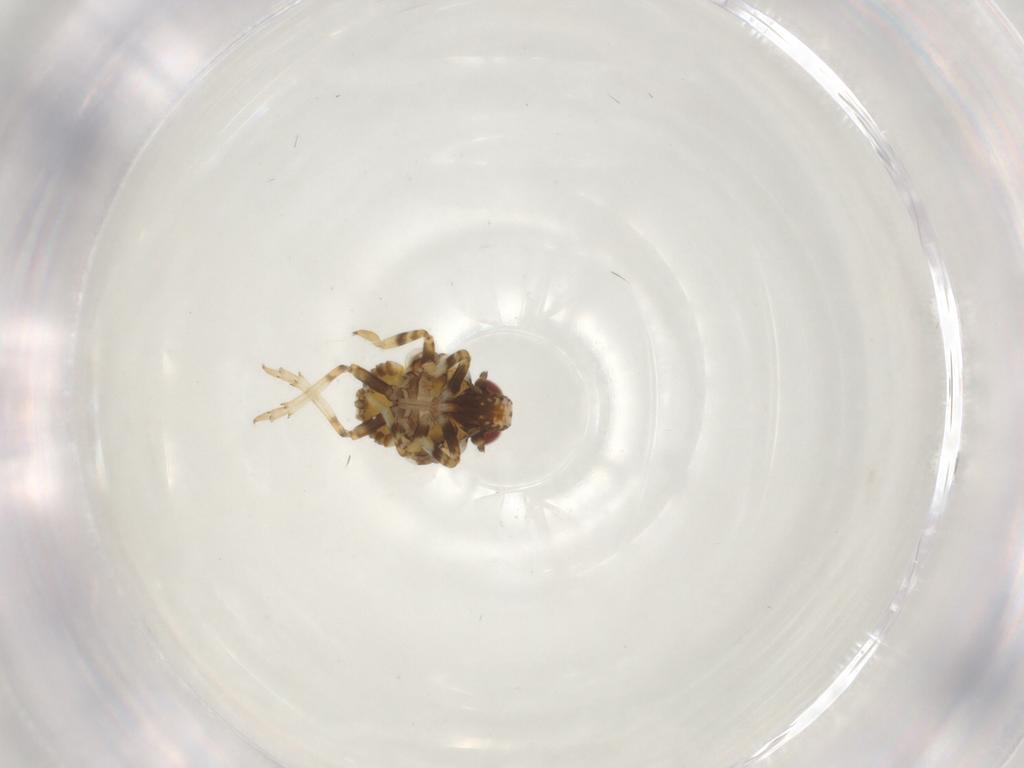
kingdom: Animalia
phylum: Arthropoda
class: Insecta
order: Hemiptera
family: Issidae
